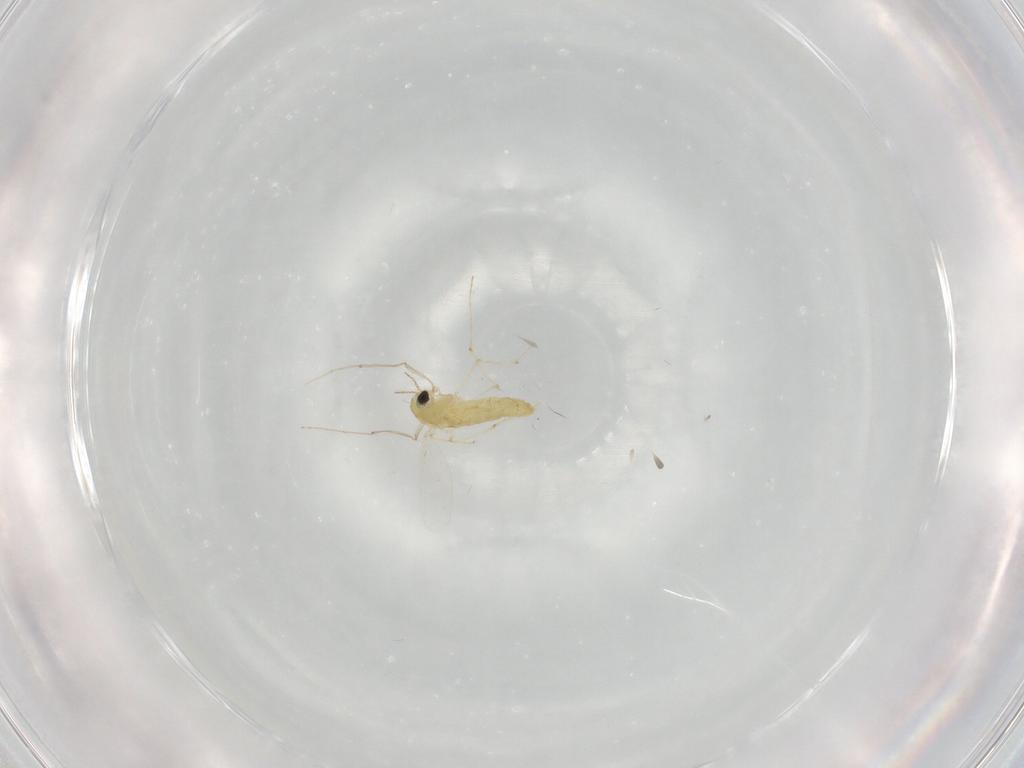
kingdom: Animalia
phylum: Arthropoda
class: Insecta
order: Diptera
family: Chironomidae
